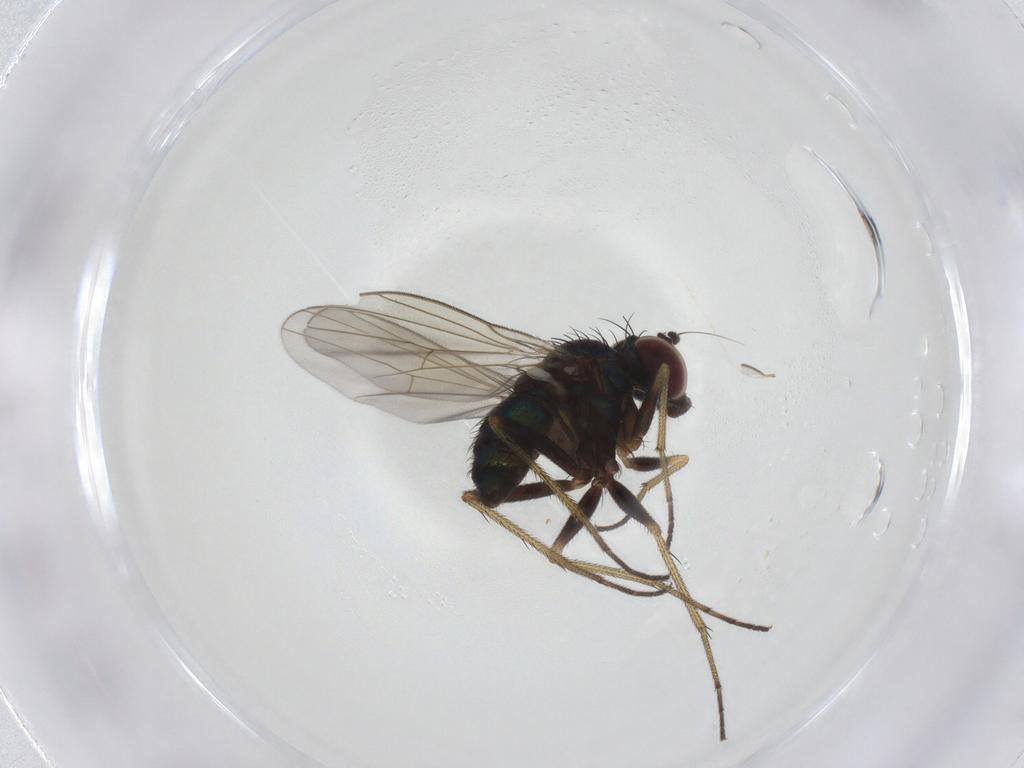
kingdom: Animalia
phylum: Arthropoda
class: Insecta
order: Diptera
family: Dolichopodidae
